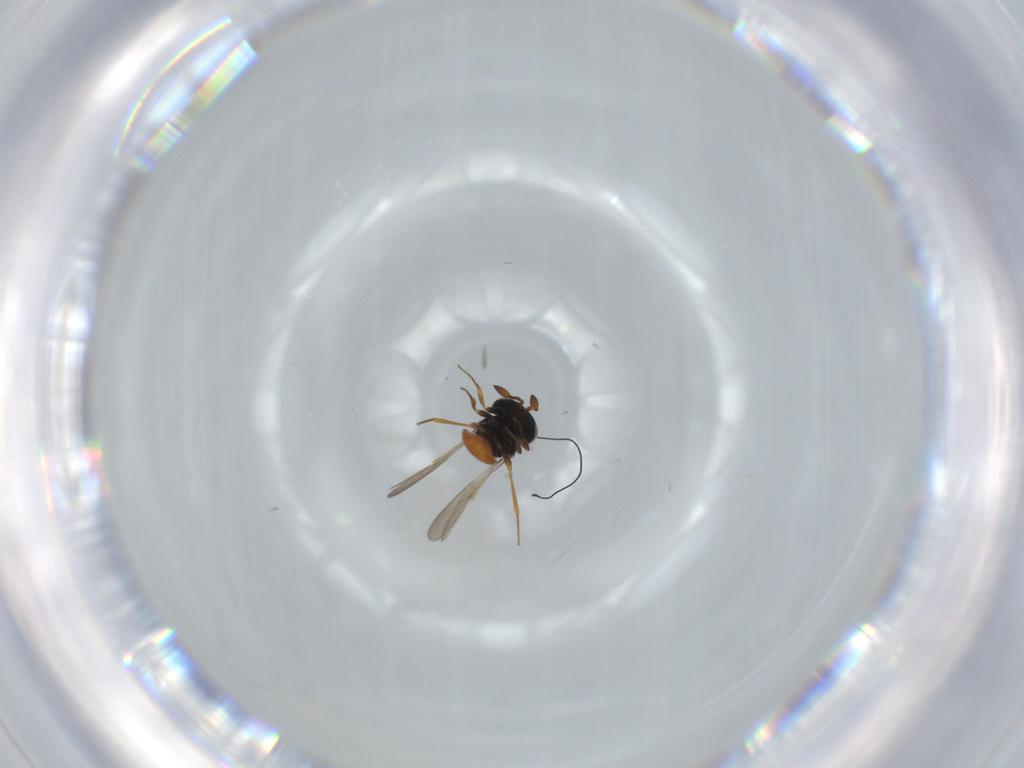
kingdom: Animalia
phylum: Arthropoda
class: Insecta
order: Hymenoptera
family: Scelionidae
